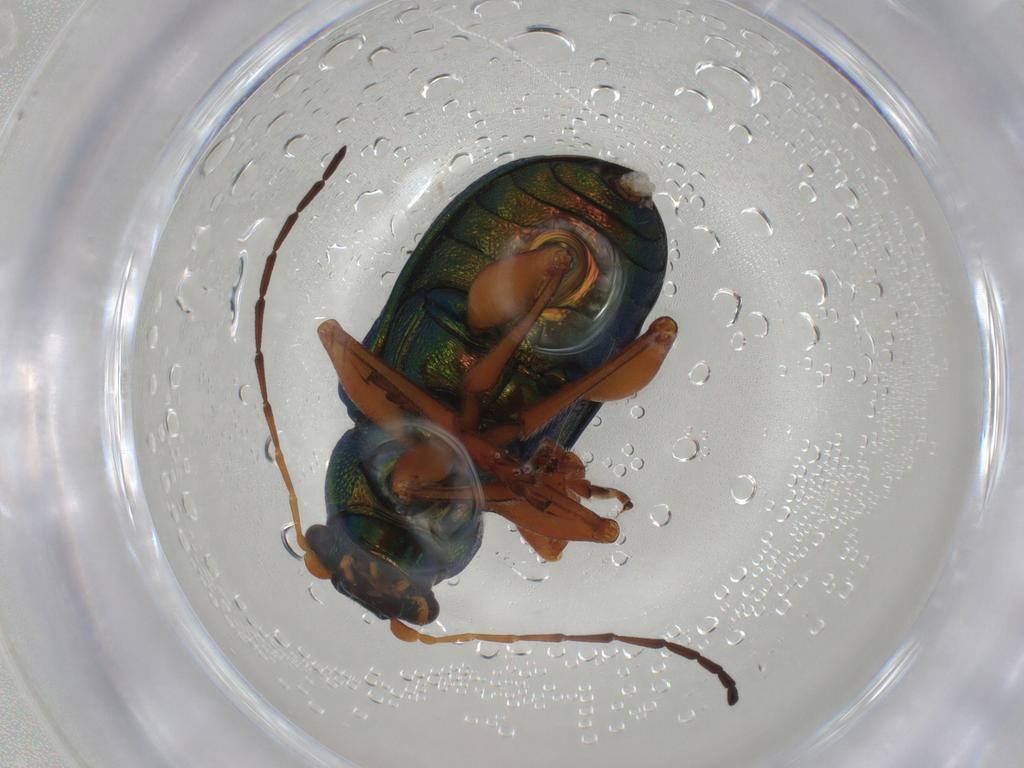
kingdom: Animalia
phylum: Arthropoda
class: Insecta
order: Coleoptera
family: Chrysomelidae
